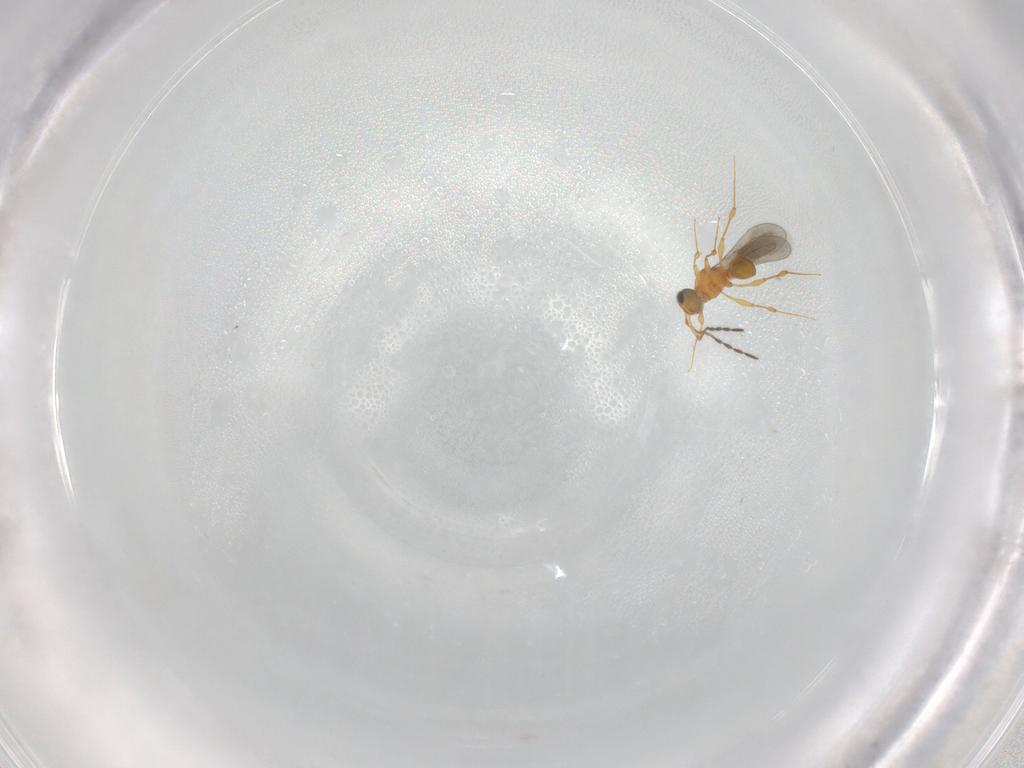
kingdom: Animalia
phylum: Arthropoda
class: Insecta
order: Hymenoptera
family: Platygastridae
